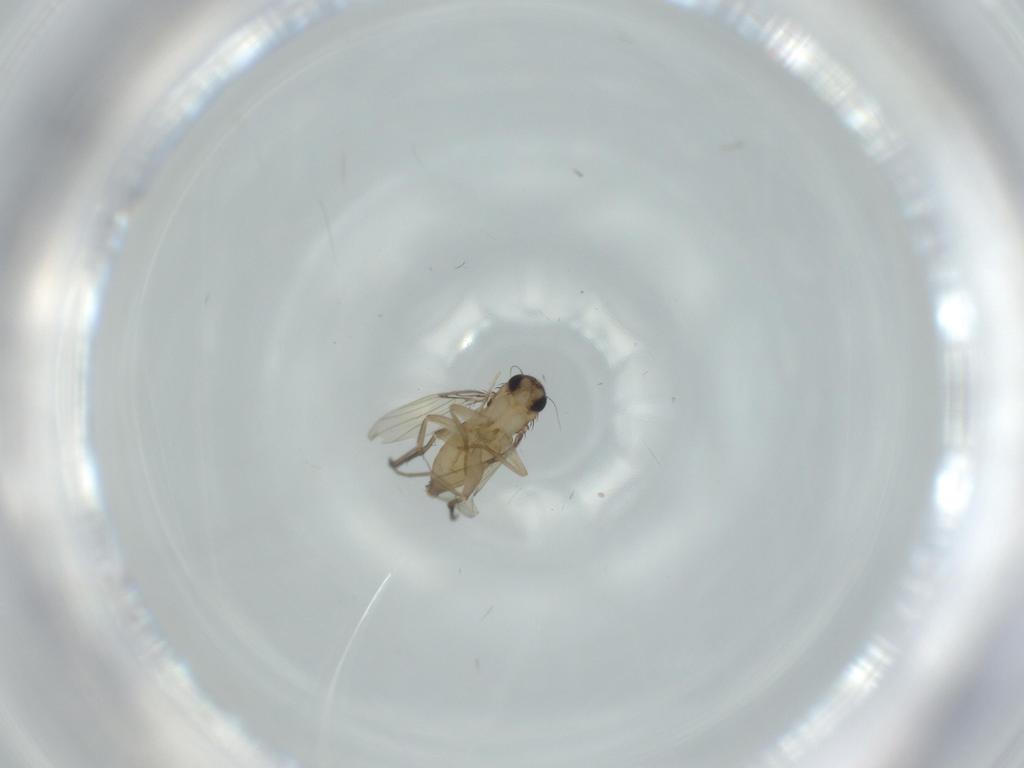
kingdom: Animalia
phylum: Arthropoda
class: Insecta
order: Diptera
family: Phoridae
